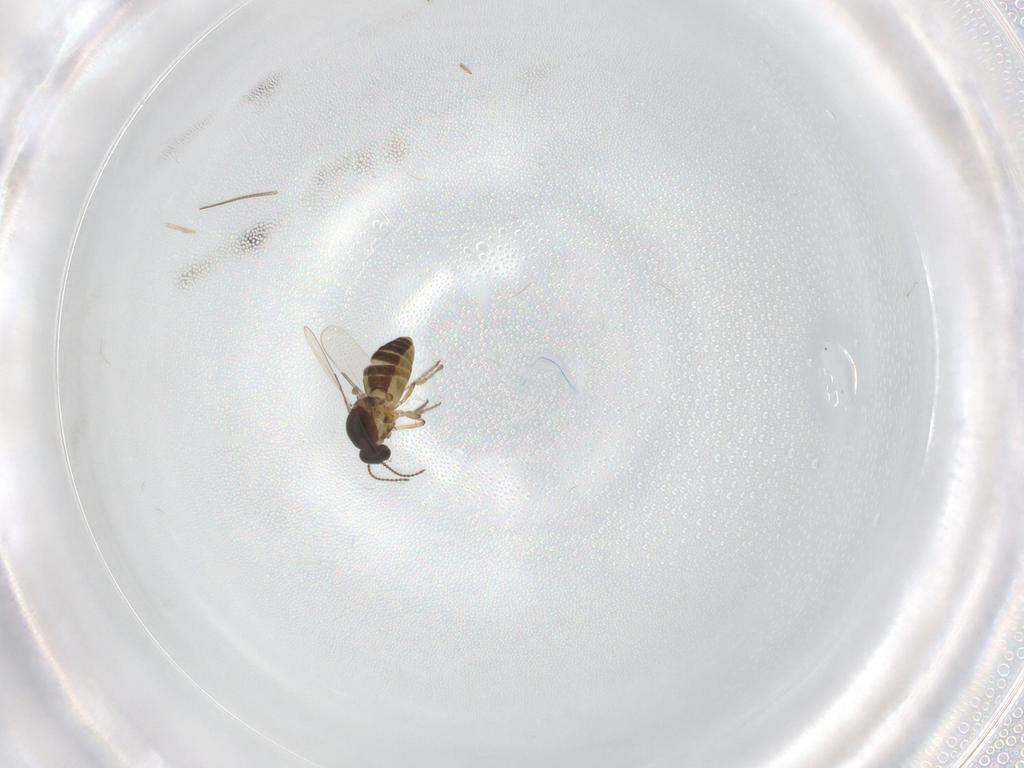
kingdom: Animalia
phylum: Arthropoda
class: Insecta
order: Diptera
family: Ceratopogonidae
